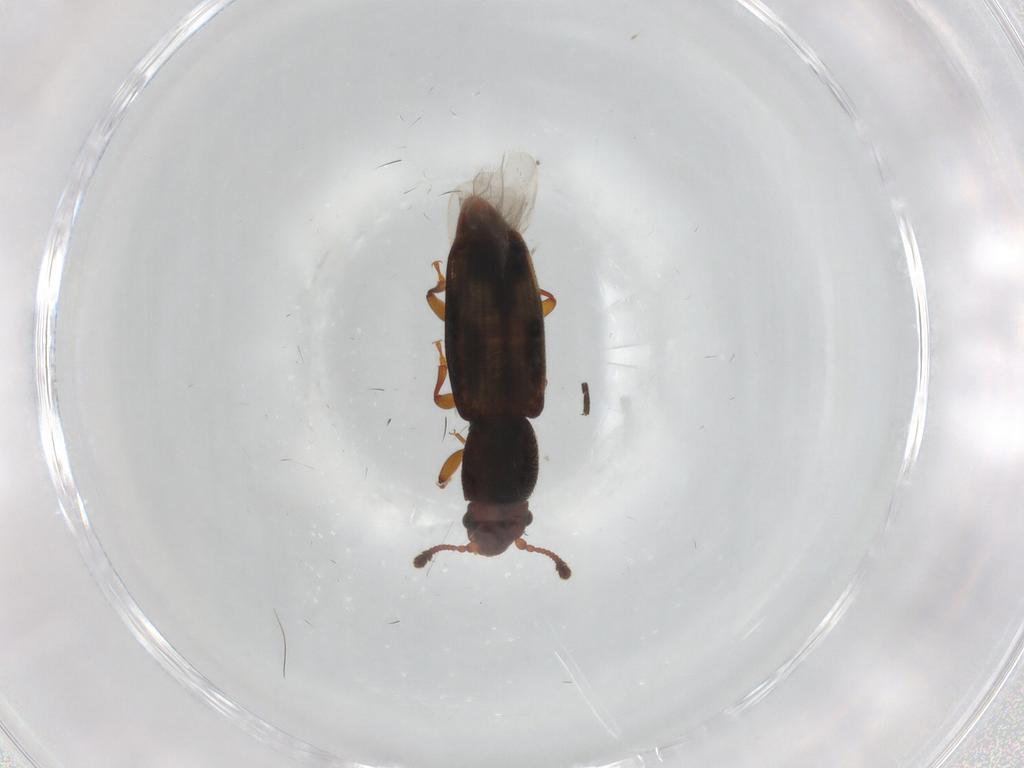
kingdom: Animalia
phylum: Arthropoda
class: Insecta
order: Coleoptera
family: Monotomidae
